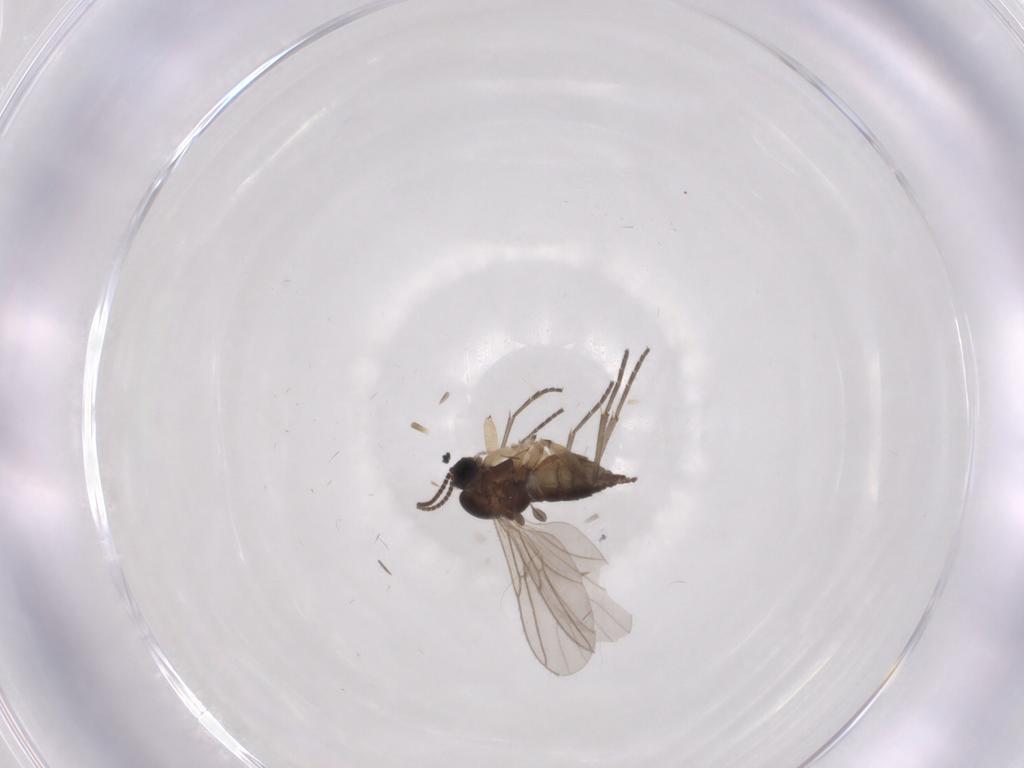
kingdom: Animalia
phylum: Arthropoda
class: Insecta
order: Diptera
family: Sciaridae
